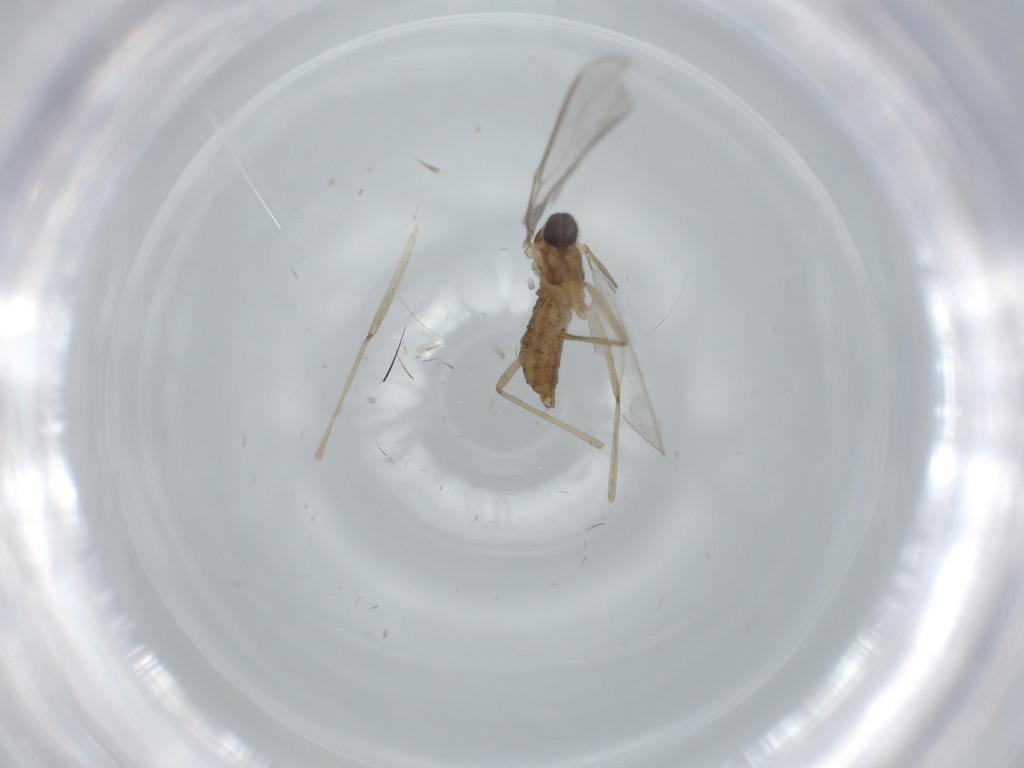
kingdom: Animalia
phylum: Arthropoda
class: Insecta
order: Diptera
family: Cecidomyiidae
